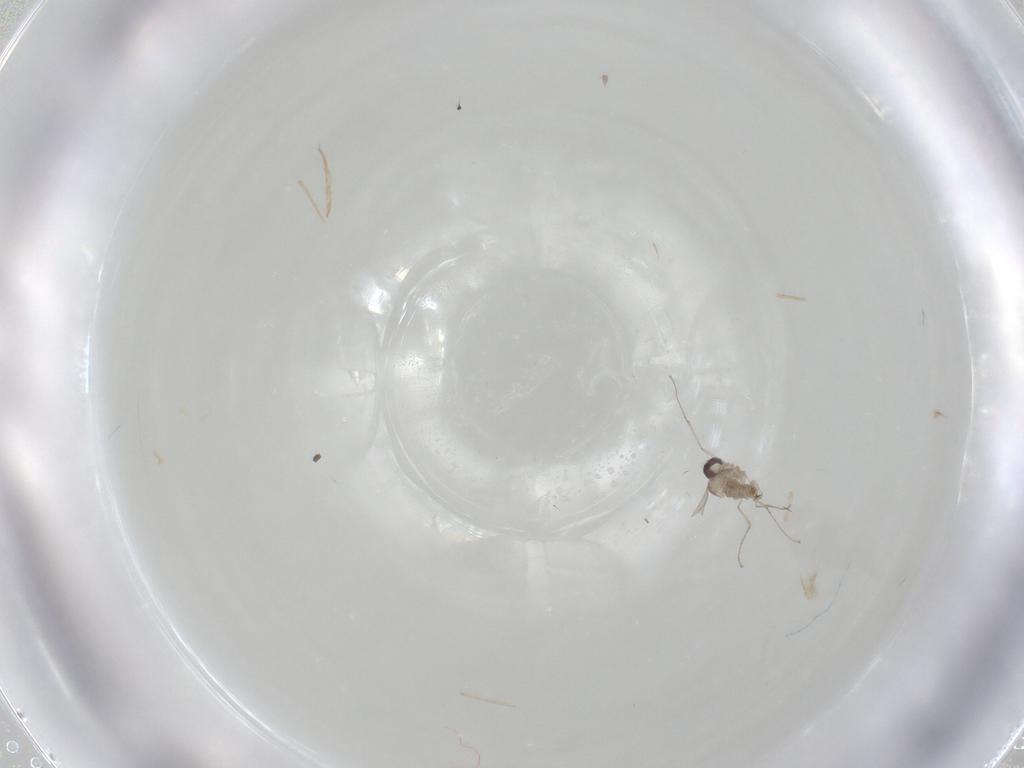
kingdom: Animalia
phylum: Arthropoda
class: Insecta
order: Diptera
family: Cecidomyiidae
